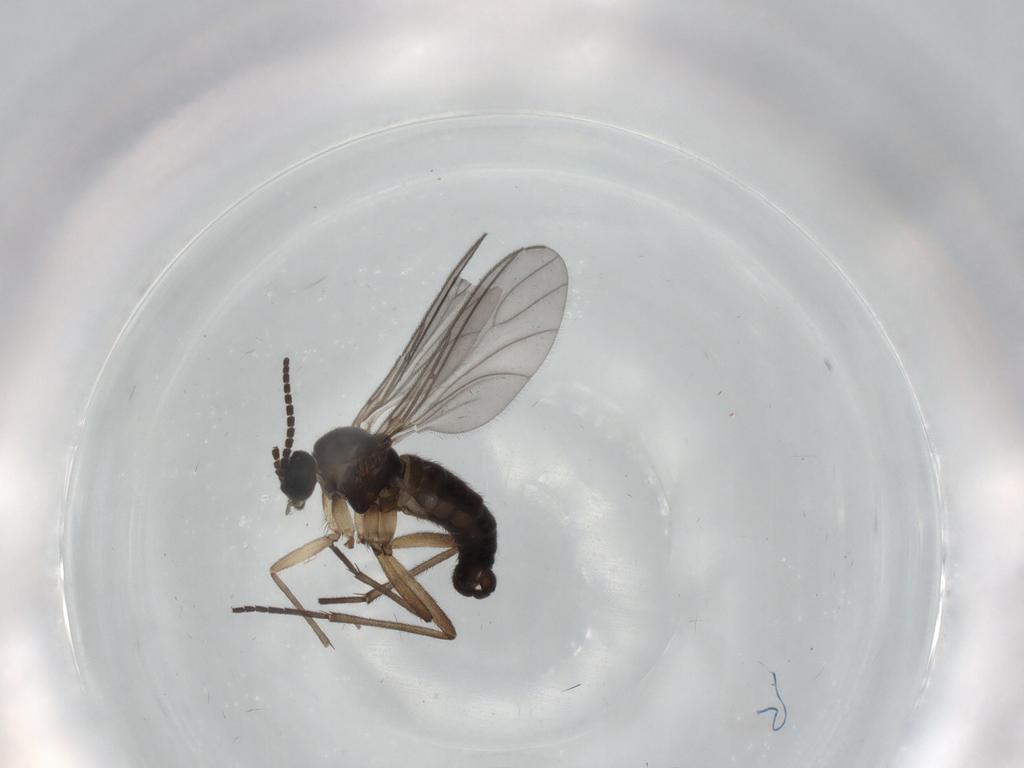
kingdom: Animalia
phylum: Arthropoda
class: Insecta
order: Diptera
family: Sciaridae
